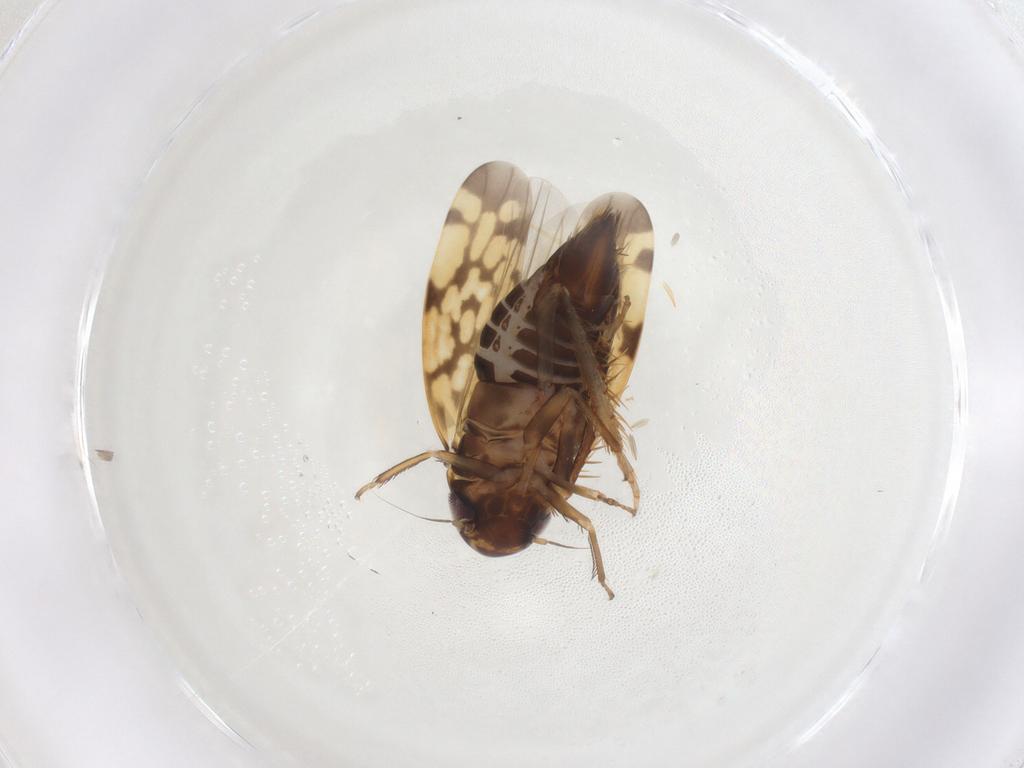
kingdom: Animalia
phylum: Arthropoda
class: Insecta
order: Hemiptera
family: Cicadellidae
